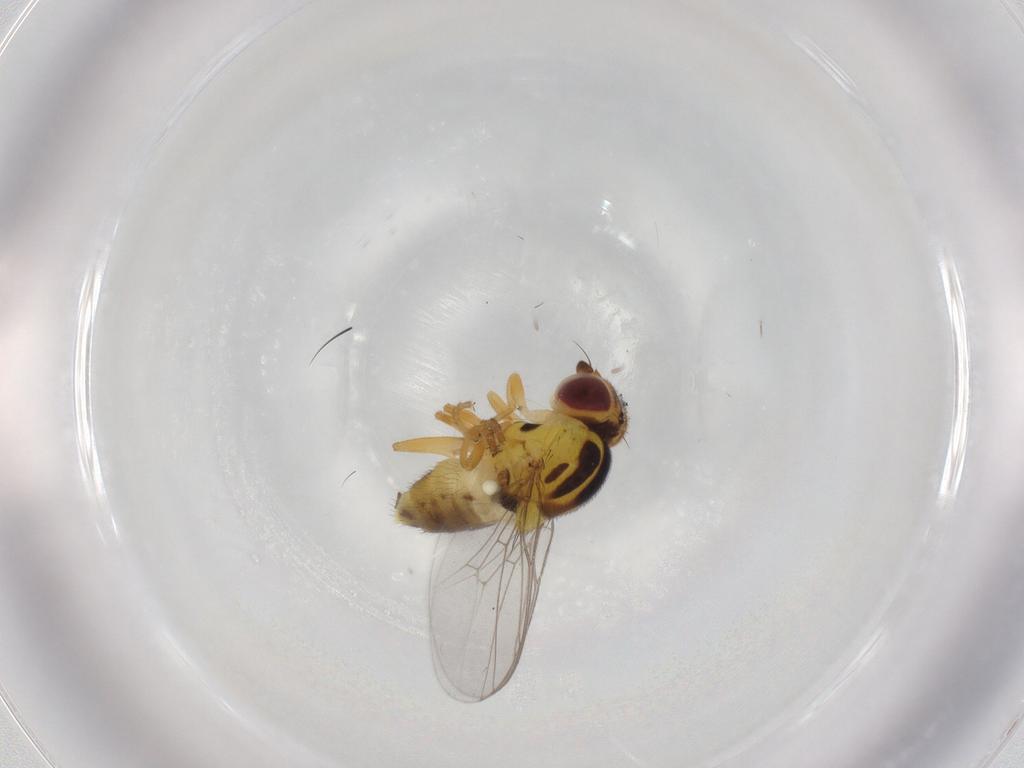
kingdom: Animalia
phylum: Arthropoda
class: Insecta
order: Diptera
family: Chloropidae
